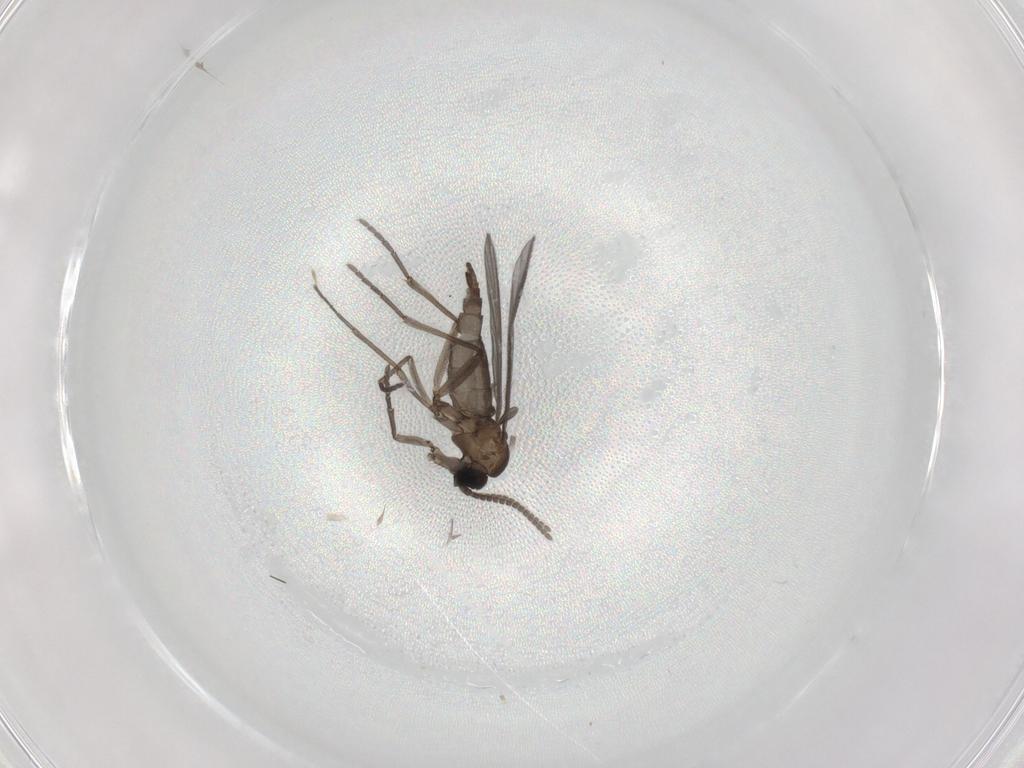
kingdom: Animalia
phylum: Arthropoda
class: Insecta
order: Diptera
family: Sciaridae
